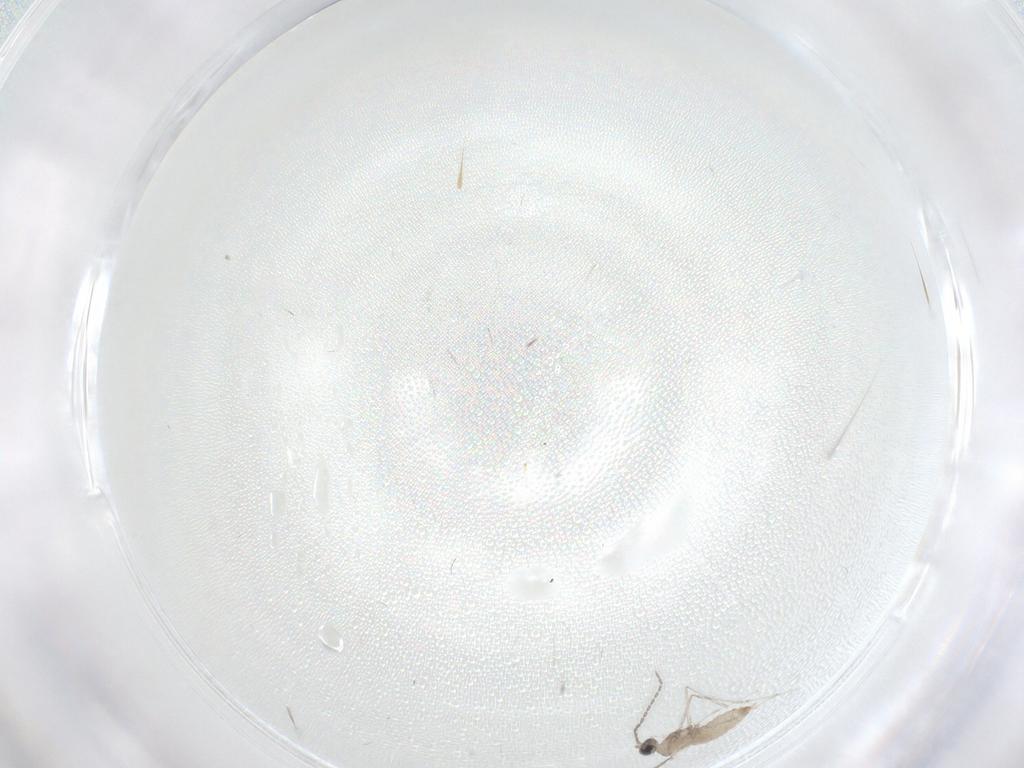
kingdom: Animalia
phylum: Arthropoda
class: Insecta
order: Diptera
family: Cecidomyiidae
